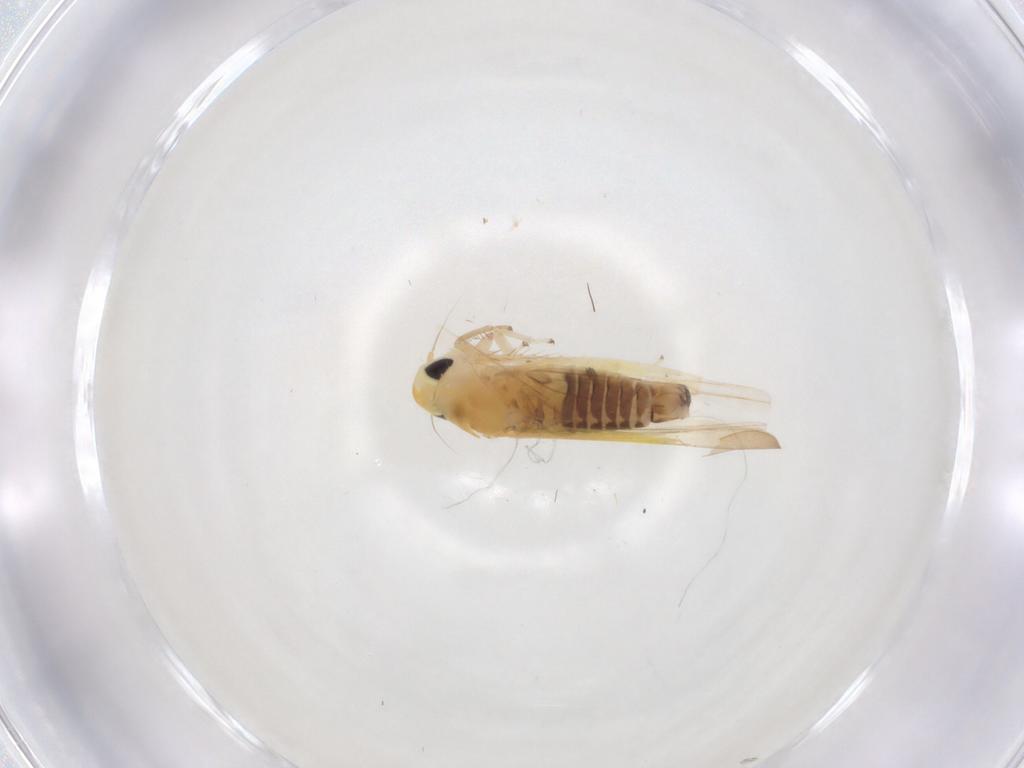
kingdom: Animalia
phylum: Arthropoda
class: Insecta
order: Hemiptera
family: Cicadellidae
